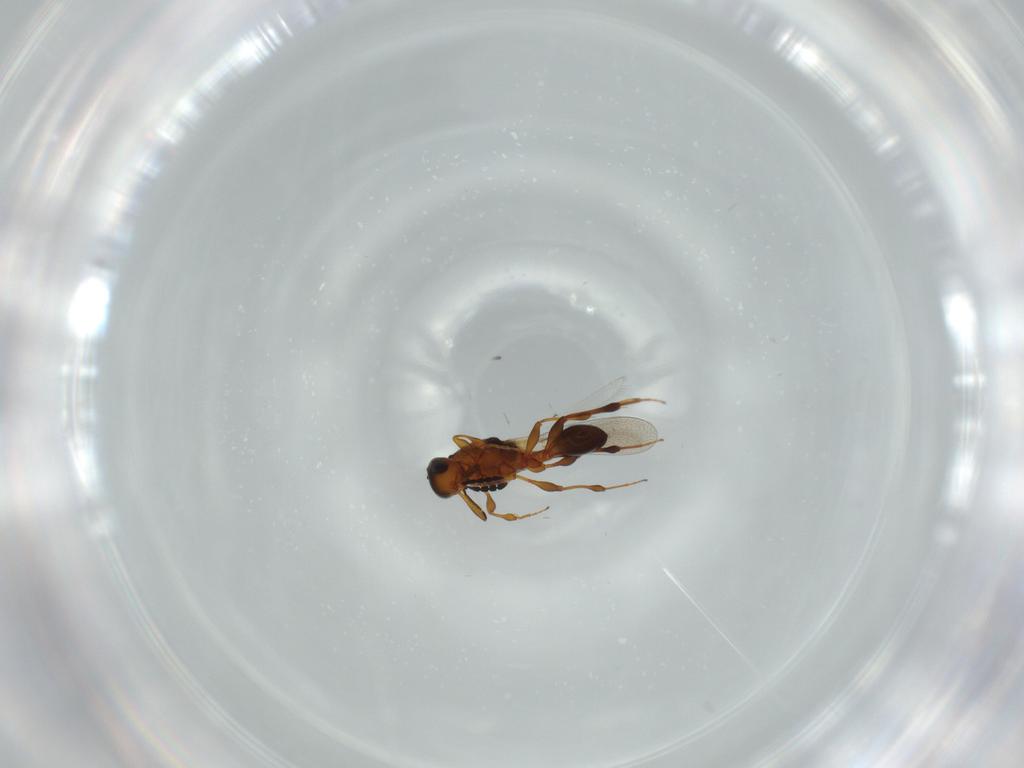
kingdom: Animalia
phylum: Arthropoda
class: Insecta
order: Hymenoptera
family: Platygastridae
